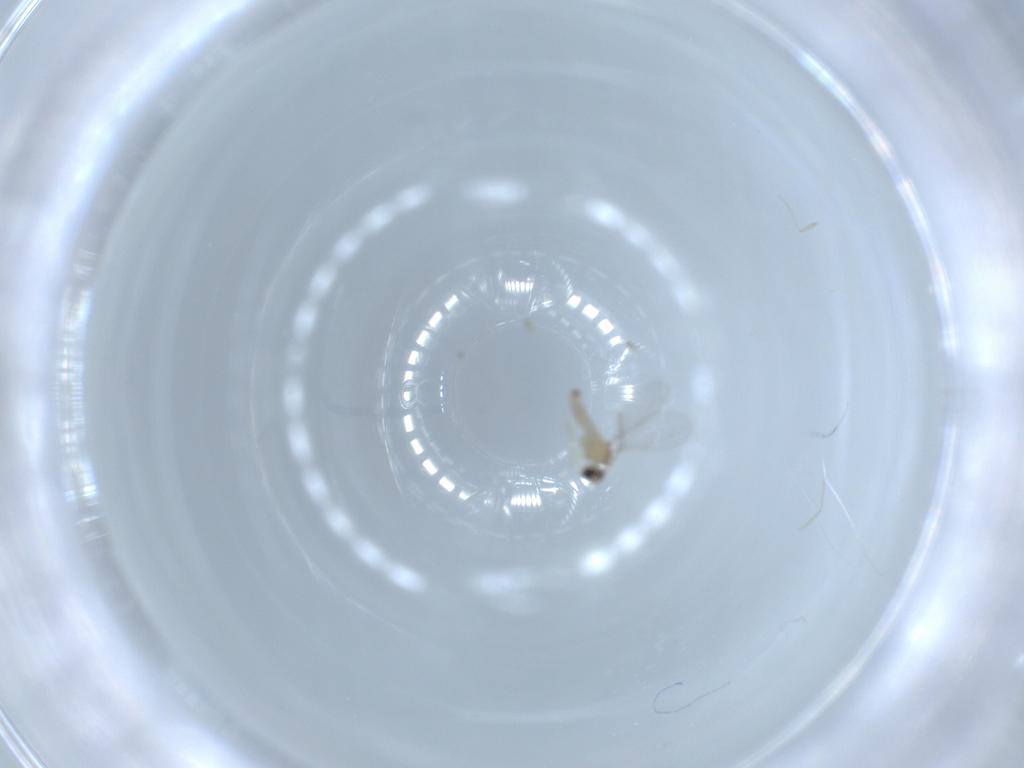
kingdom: Animalia
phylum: Arthropoda
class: Insecta
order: Diptera
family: Cecidomyiidae
